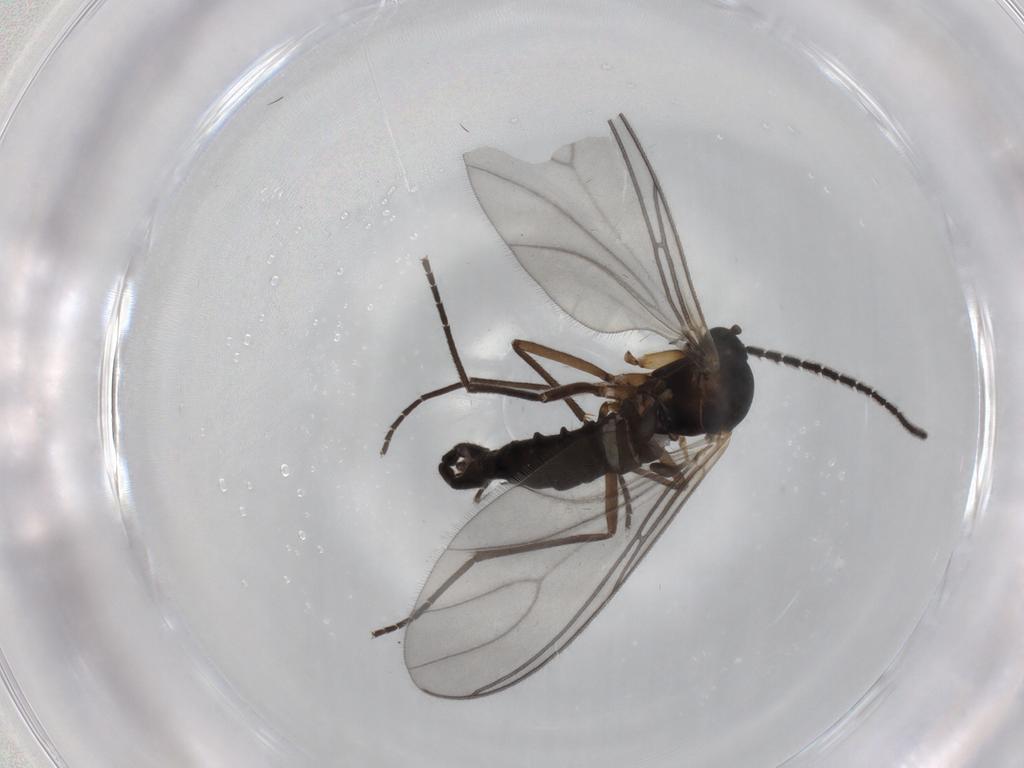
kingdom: Animalia
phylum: Arthropoda
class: Insecta
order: Diptera
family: Sciaridae
